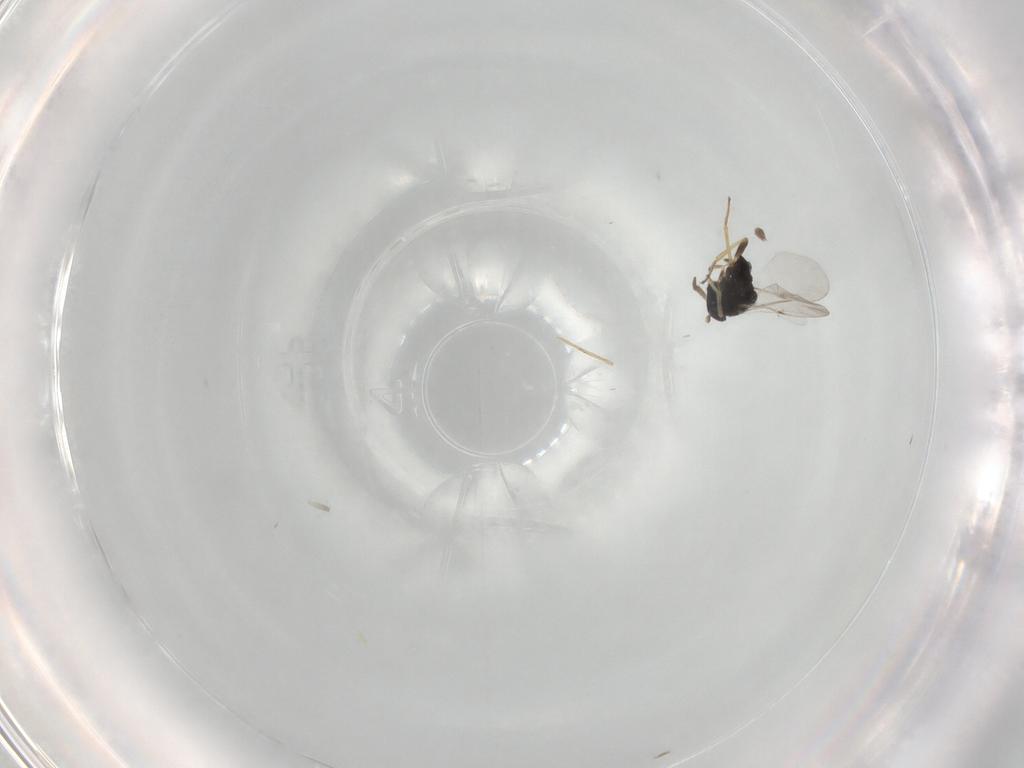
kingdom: Animalia
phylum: Arthropoda
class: Insecta
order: Hymenoptera
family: Encyrtidae
